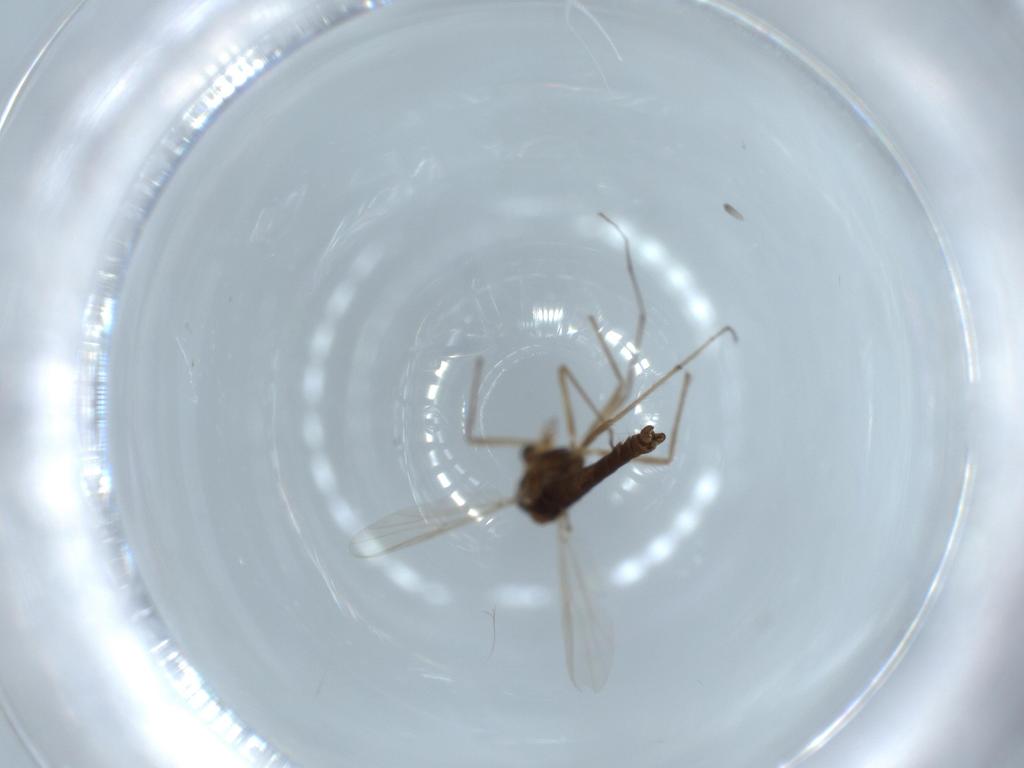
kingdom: Animalia
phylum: Arthropoda
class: Insecta
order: Diptera
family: Chironomidae
